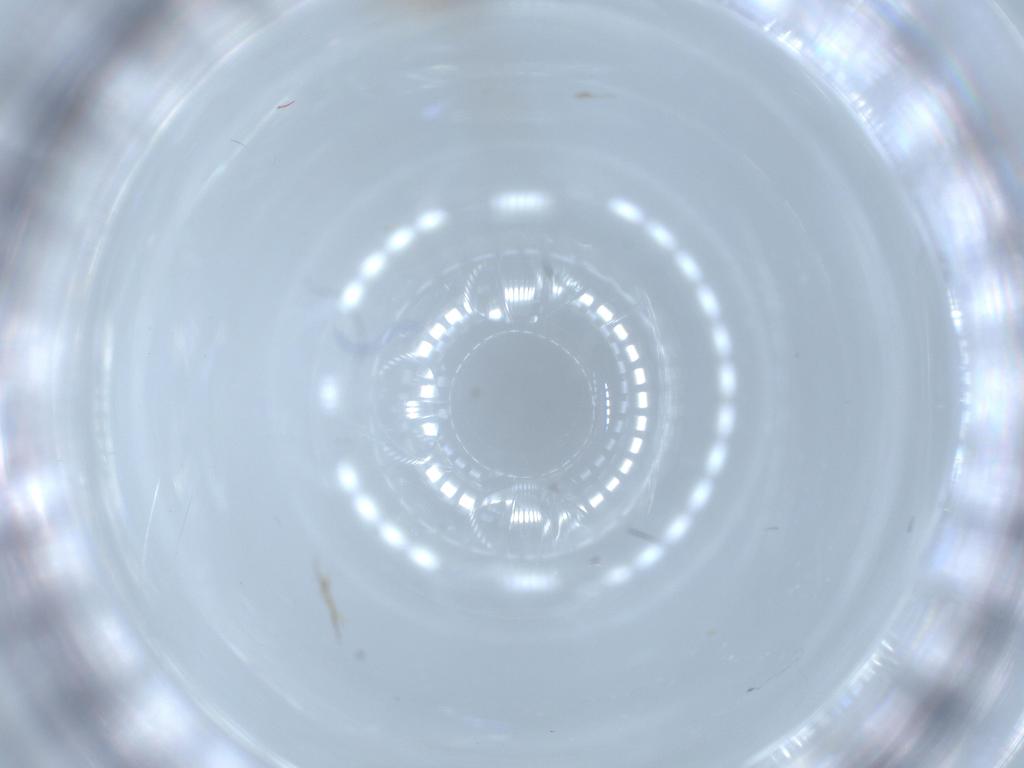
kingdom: Animalia
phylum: Arthropoda
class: Insecta
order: Diptera
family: Cecidomyiidae
